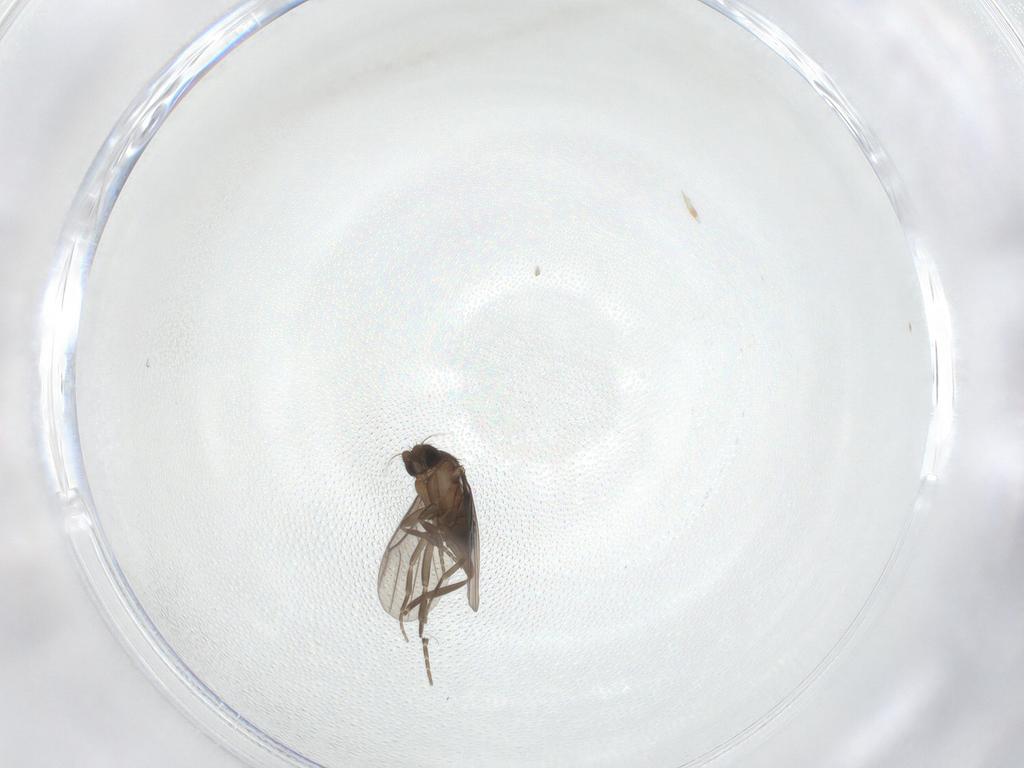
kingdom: Animalia
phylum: Arthropoda
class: Insecta
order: Diptera
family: Phoridae
